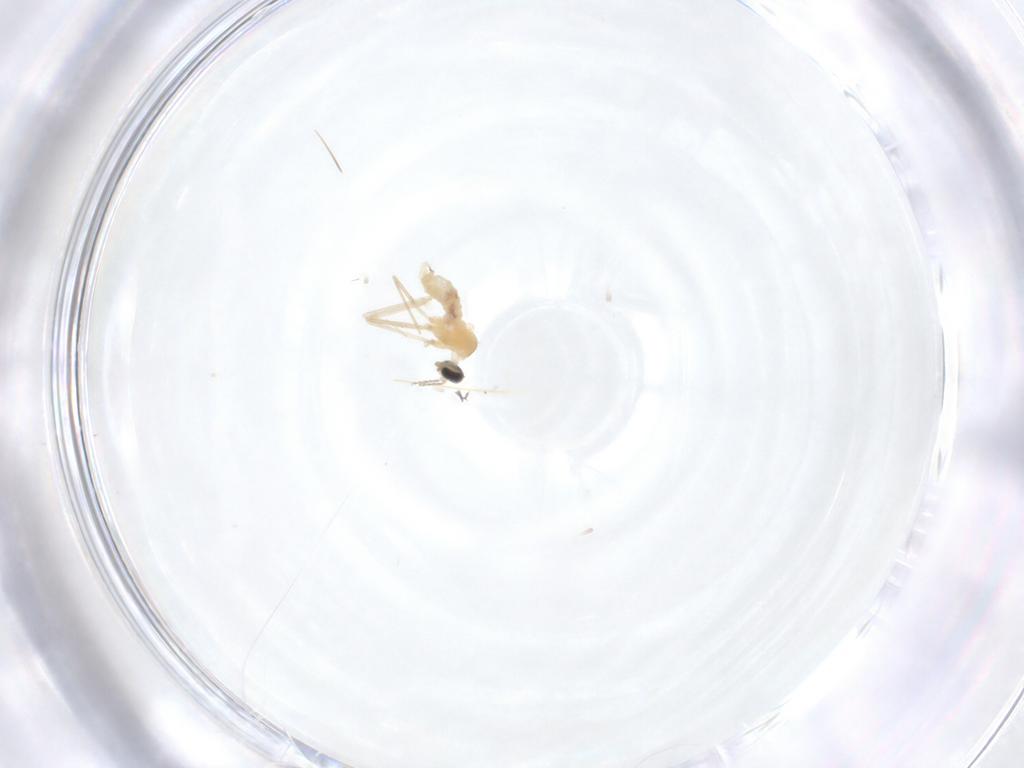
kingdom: Animalia
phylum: Arthropoda
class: Insecta
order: Diptera
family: Cecidomyiidae
